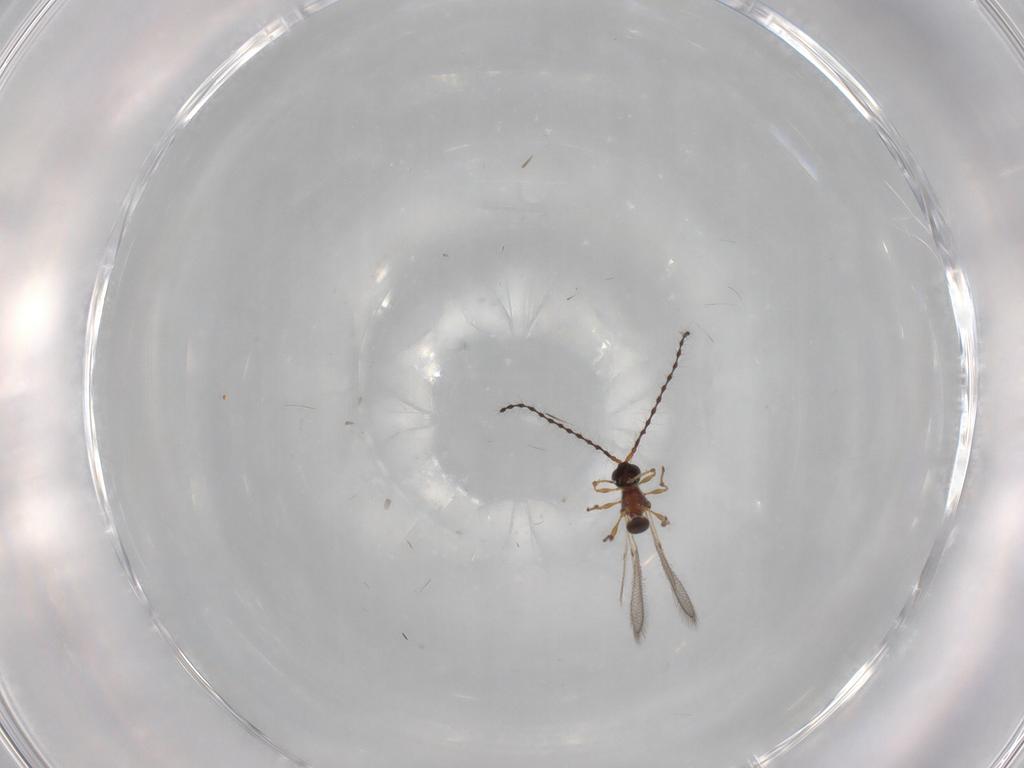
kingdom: Animalia
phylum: Arthropoda
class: Insecta
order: Hymenoptera
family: Diapriidae
